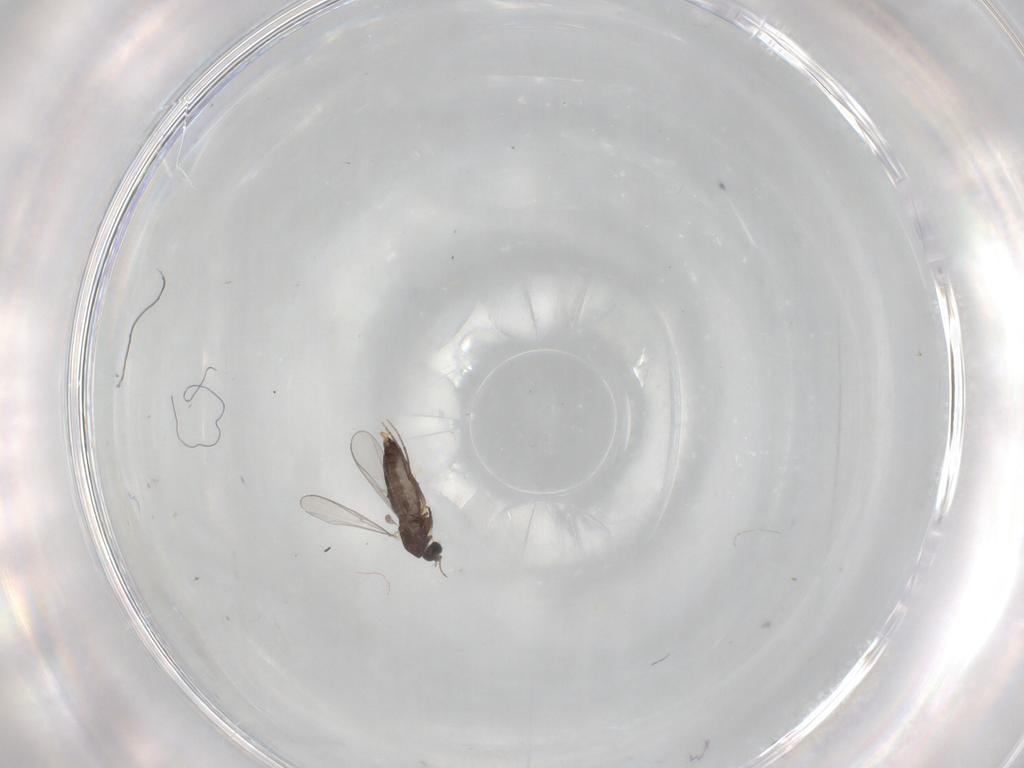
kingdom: Animalia
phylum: Arthropoda
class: Insecta
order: Diptera
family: Chironomidae
